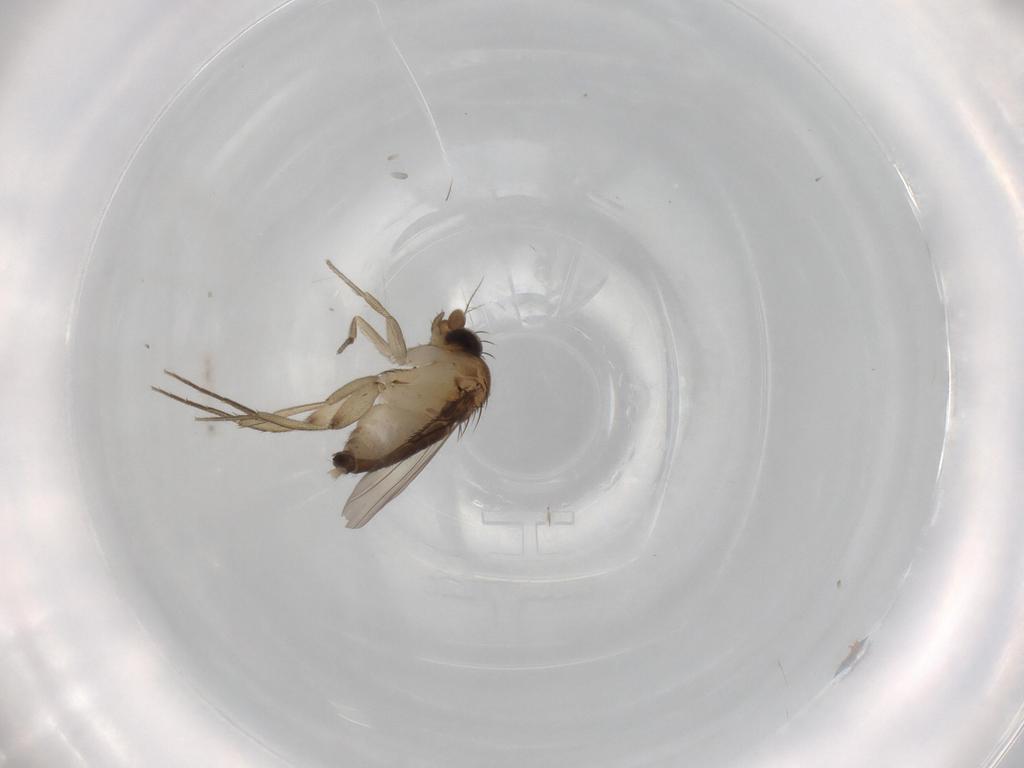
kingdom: Animalia
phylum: Arthropoda
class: Insecta
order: Diptera
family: Phoridae
